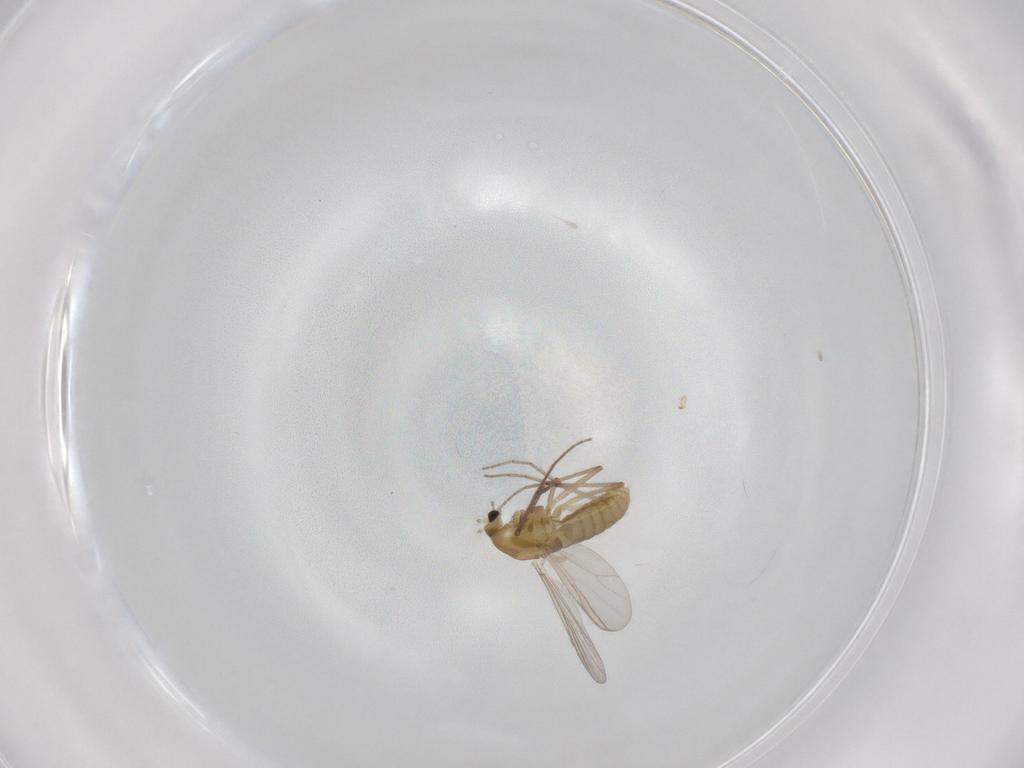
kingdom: Animalia
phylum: Arthropoda
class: Insecta
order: Diptera
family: Chironomidae
